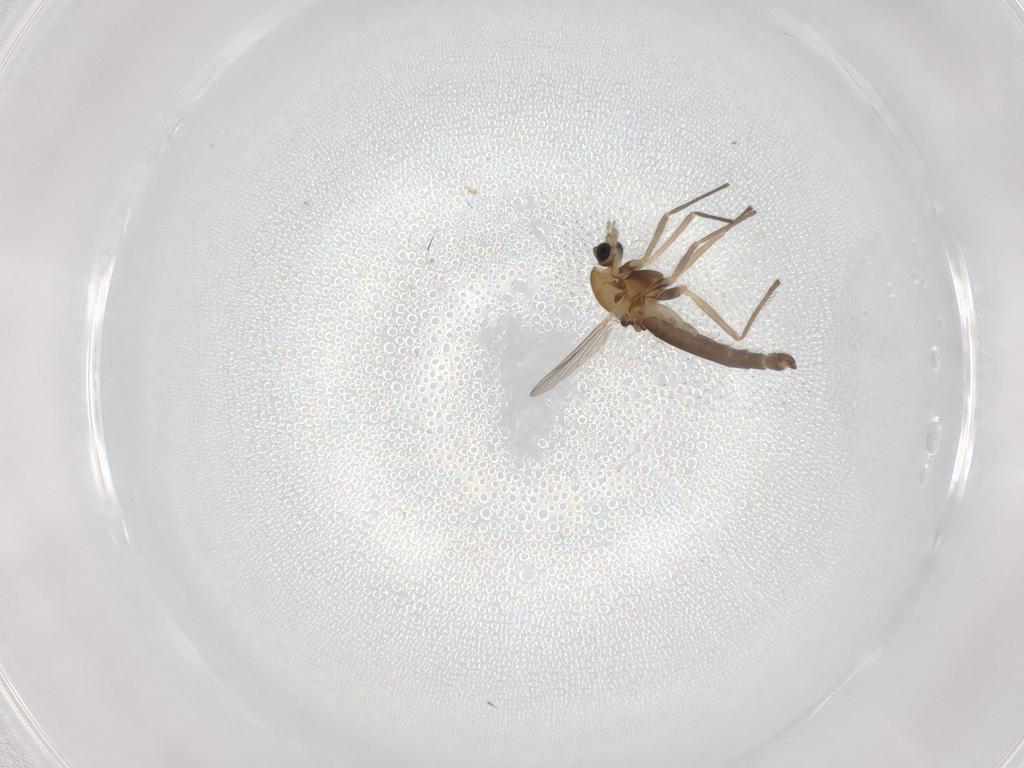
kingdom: Animalia
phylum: Arthropoda
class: Insecta
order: Diptera
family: Chironomidae
